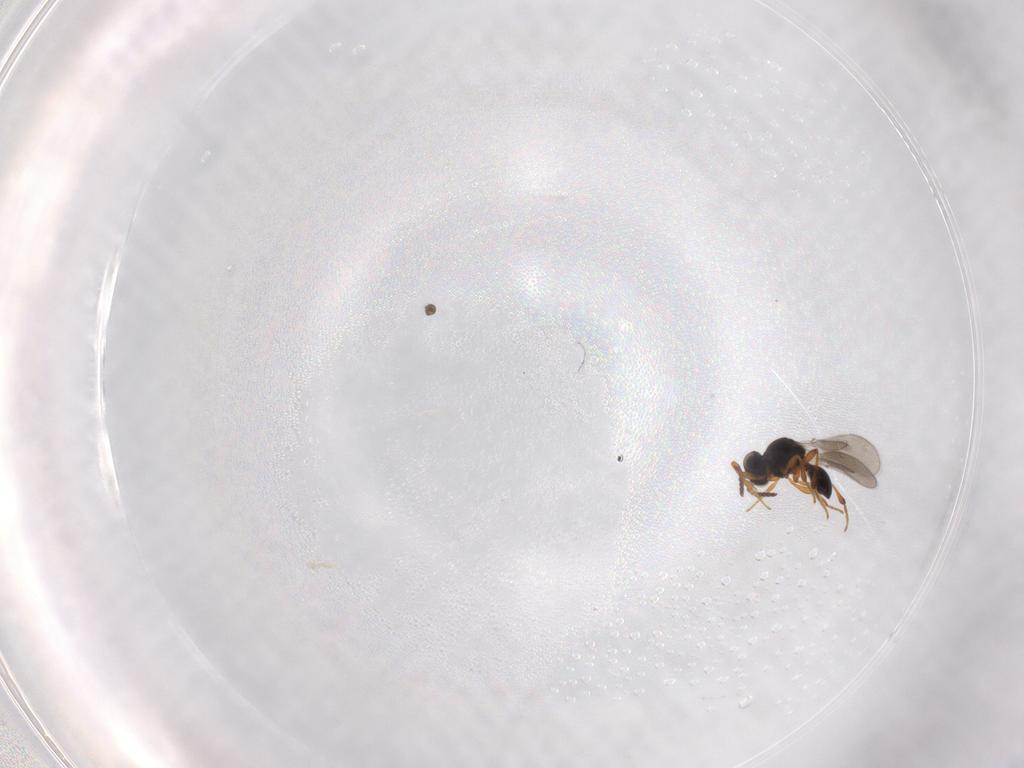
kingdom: Animalia
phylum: Arthropoda
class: Insecta
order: Hymenoptera
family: Platygastridae
